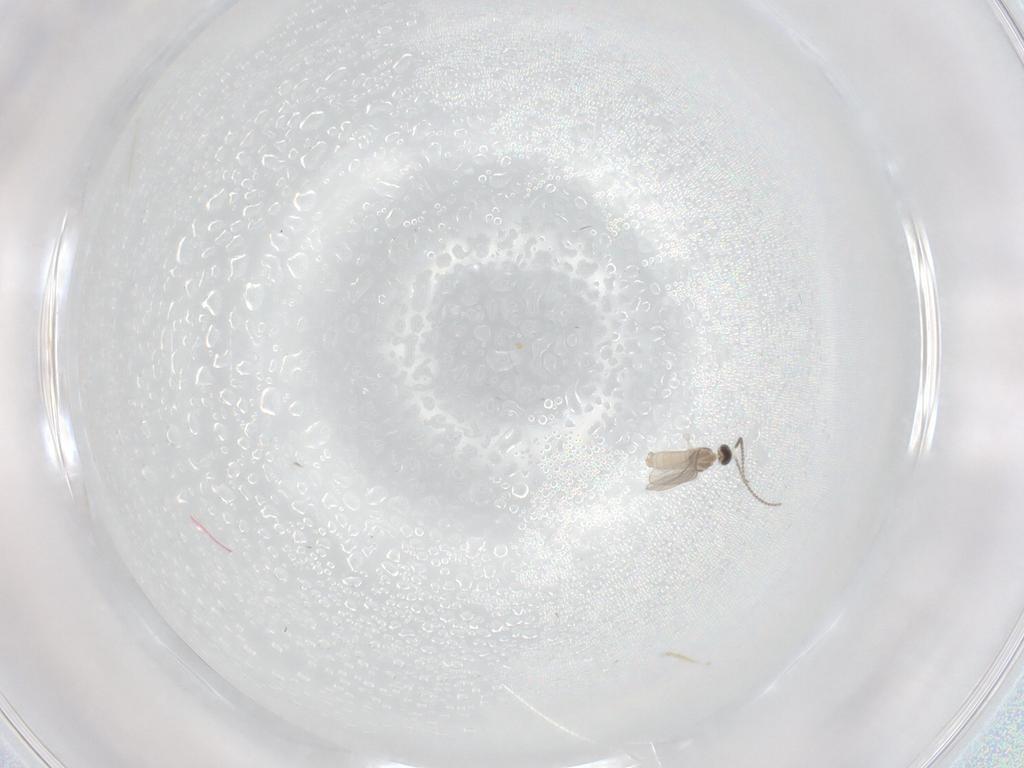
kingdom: Animalia
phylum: Arthropoda
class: Insecta
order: Diptera
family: Cecidomyiidae
